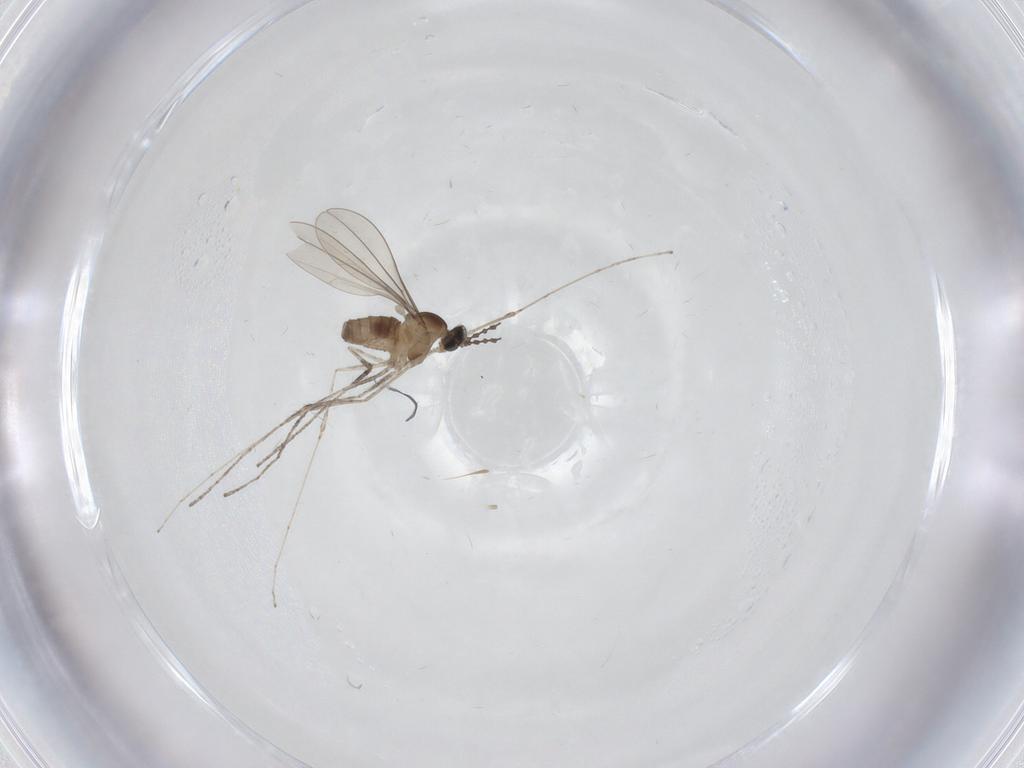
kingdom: Animalia
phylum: Arthropoda
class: Insecta
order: Diptera
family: Cecidomyiidae
